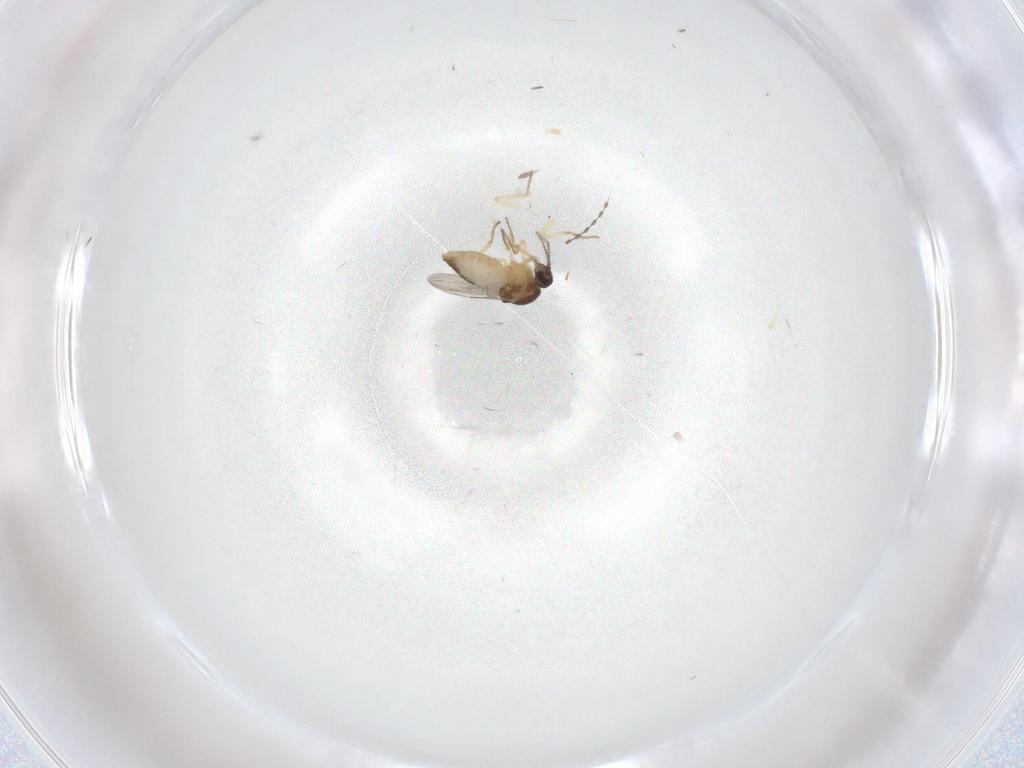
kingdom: Animalia
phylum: Arthropoda
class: Insecta
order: Diptera
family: Ceratopogonidae
